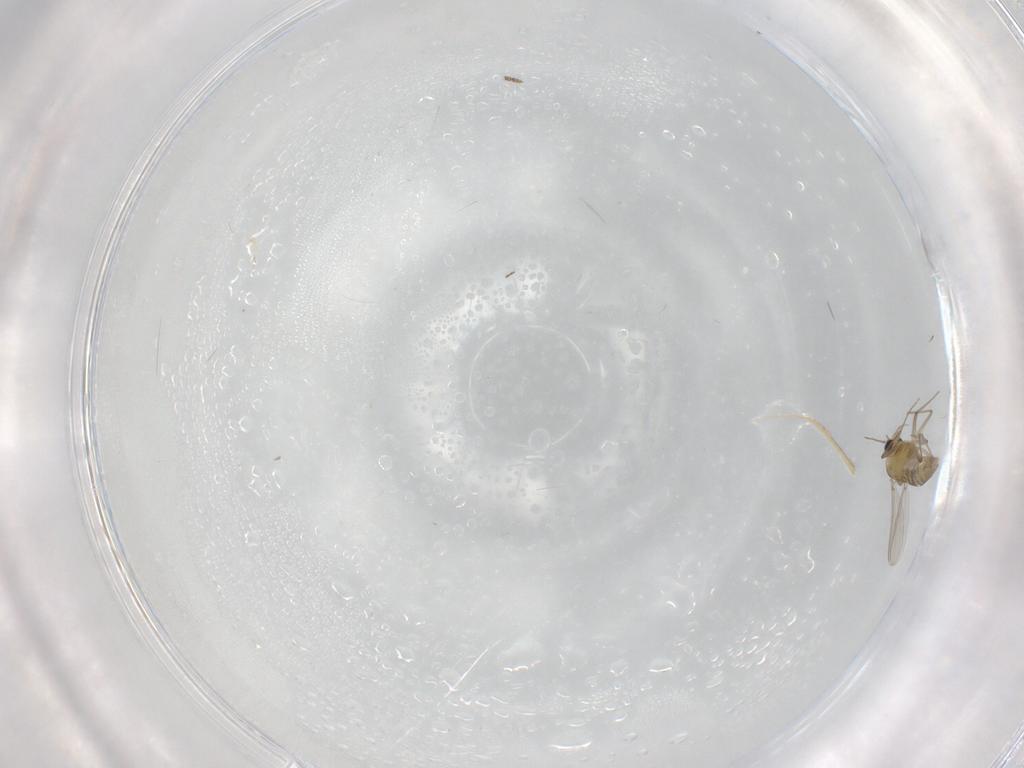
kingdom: Animalia
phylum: Arthropoda
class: Insecta
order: Diptera
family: Chironomidae
